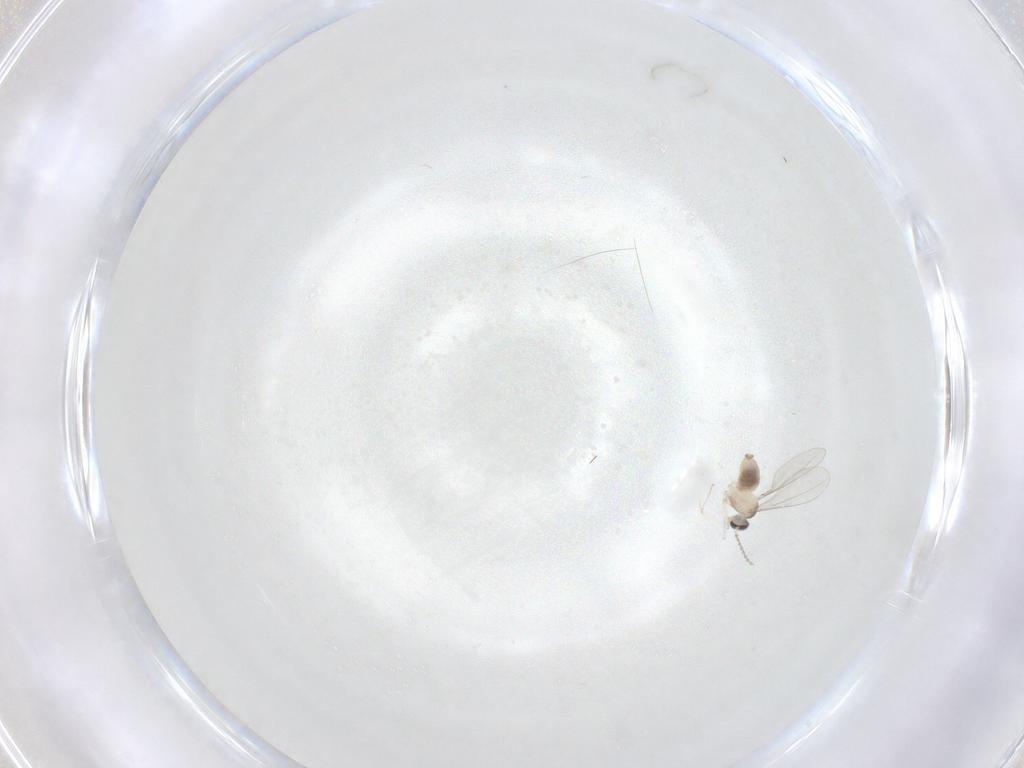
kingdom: Animalia
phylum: Arthropoda
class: Insecta
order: Diptera
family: Cecidomyiidae
